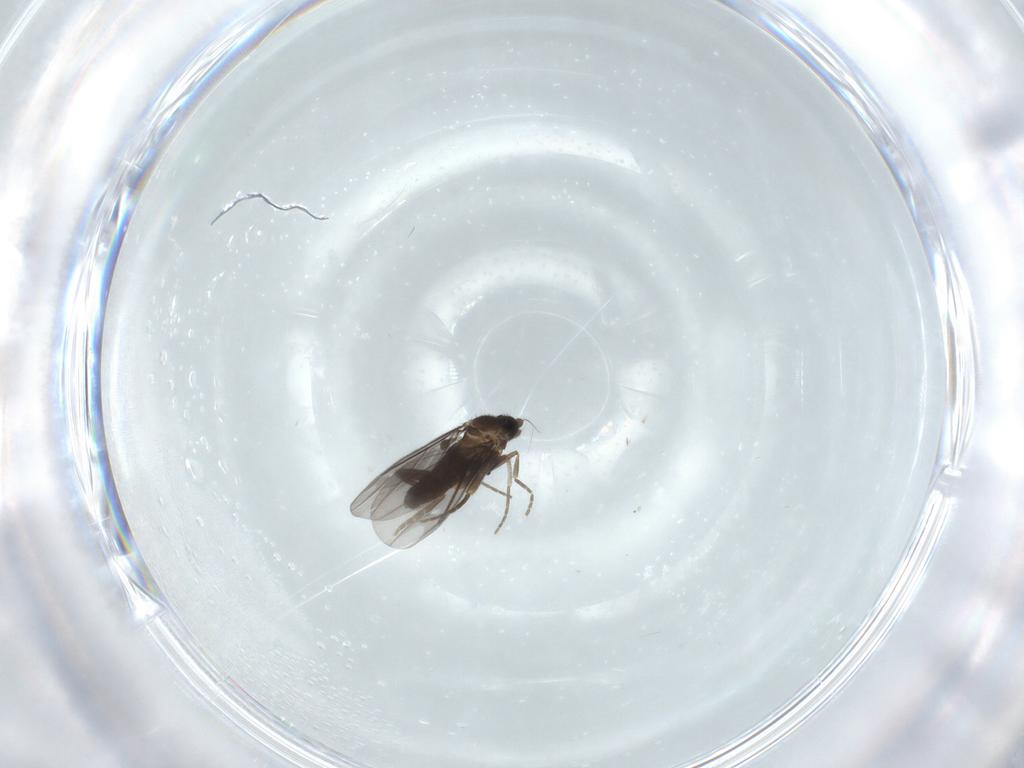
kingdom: Animalia
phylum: Arthropoda
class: Insecta
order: Diptera
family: Phoridae
